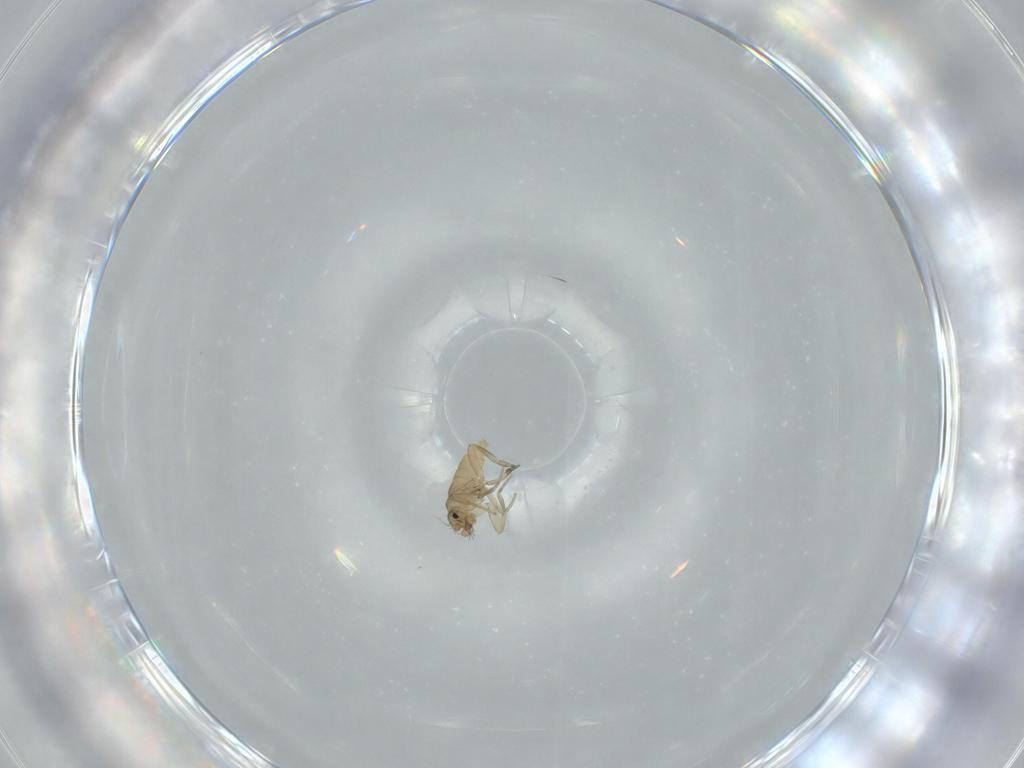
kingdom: Animalia
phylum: Arthropoda
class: Insecta
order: Diptera
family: Phoridae
